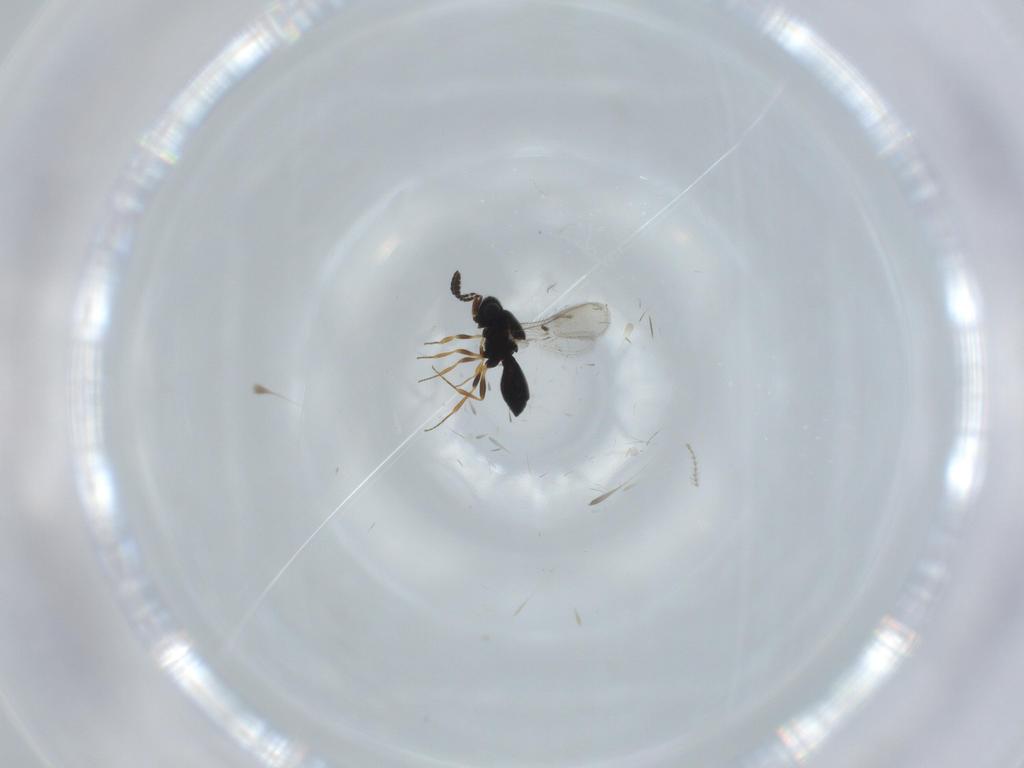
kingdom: Animalia
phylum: Arthropoda
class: Insecta
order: Hymenoptera
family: Scelionidae
